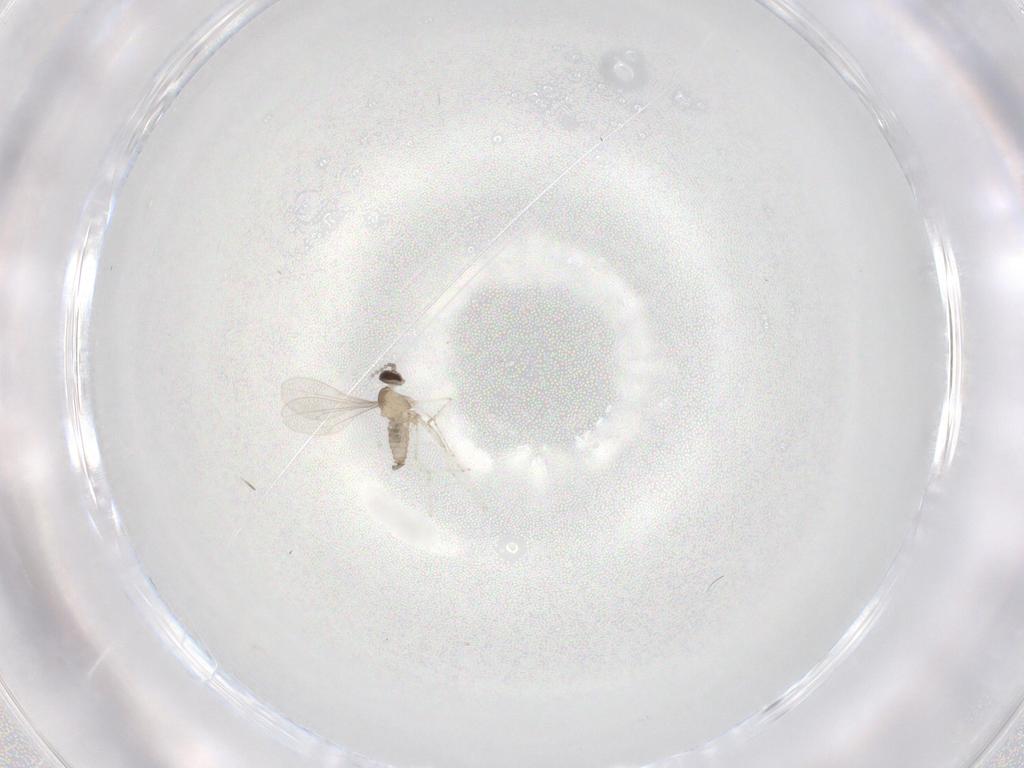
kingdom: Animalia
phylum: Arthropoda
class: Insecta
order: Diptera
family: Cecidomyiidae
